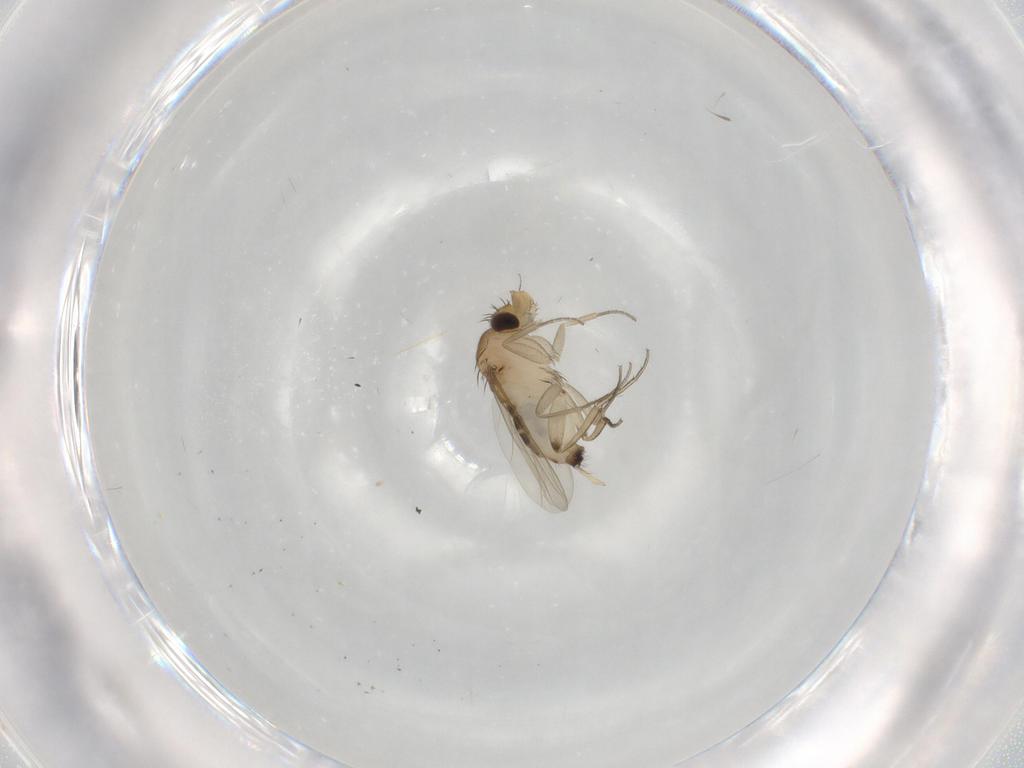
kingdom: Animalia
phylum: Arthropoda
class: Insecta
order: Diptera
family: Phoridae
